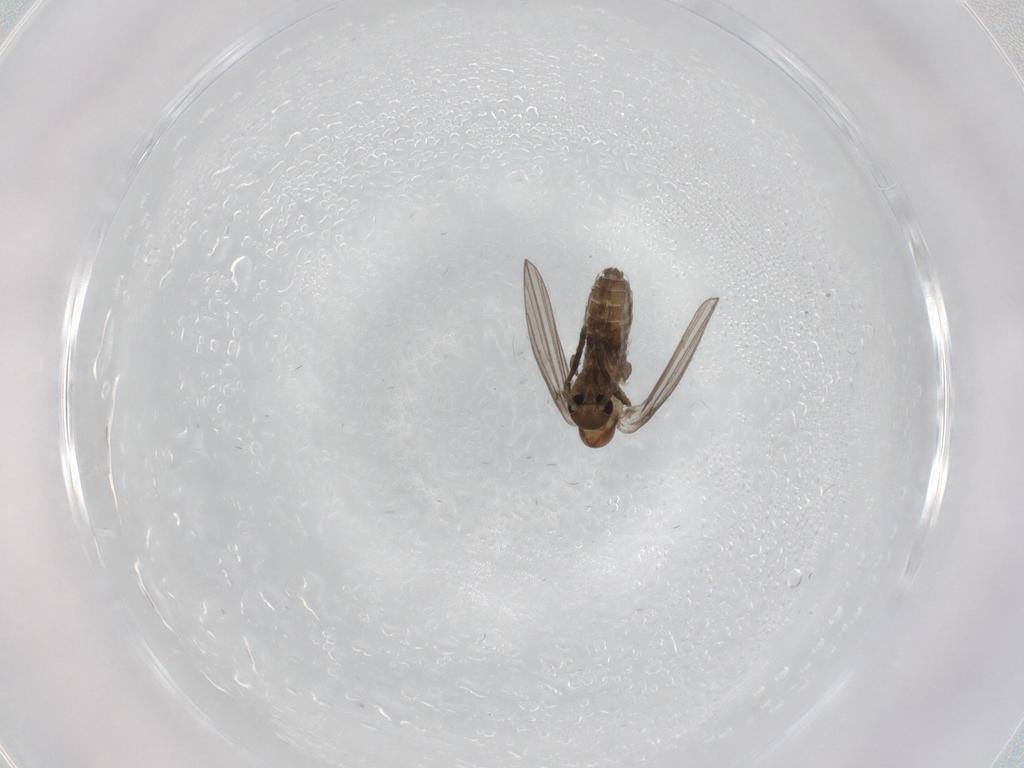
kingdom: Animalia
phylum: Arthropoda
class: Insecta
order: Diptera
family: Psychodidae
